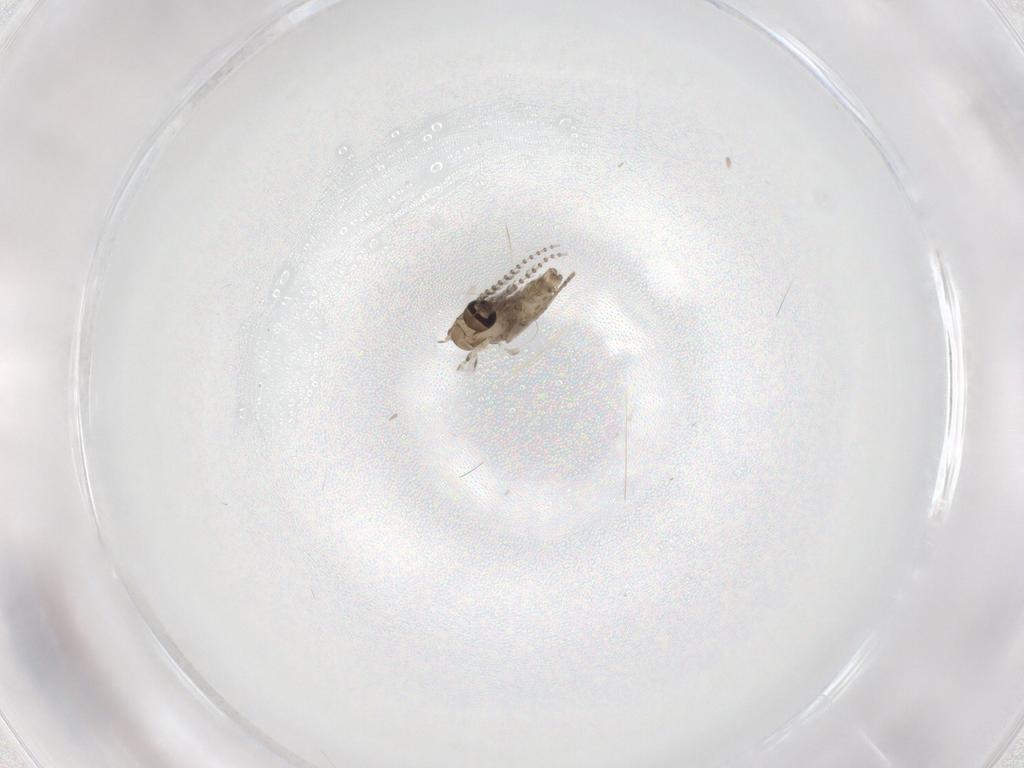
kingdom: Animalia
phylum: Arthropoda
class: Insecta
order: Diptera
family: Psychodidae
